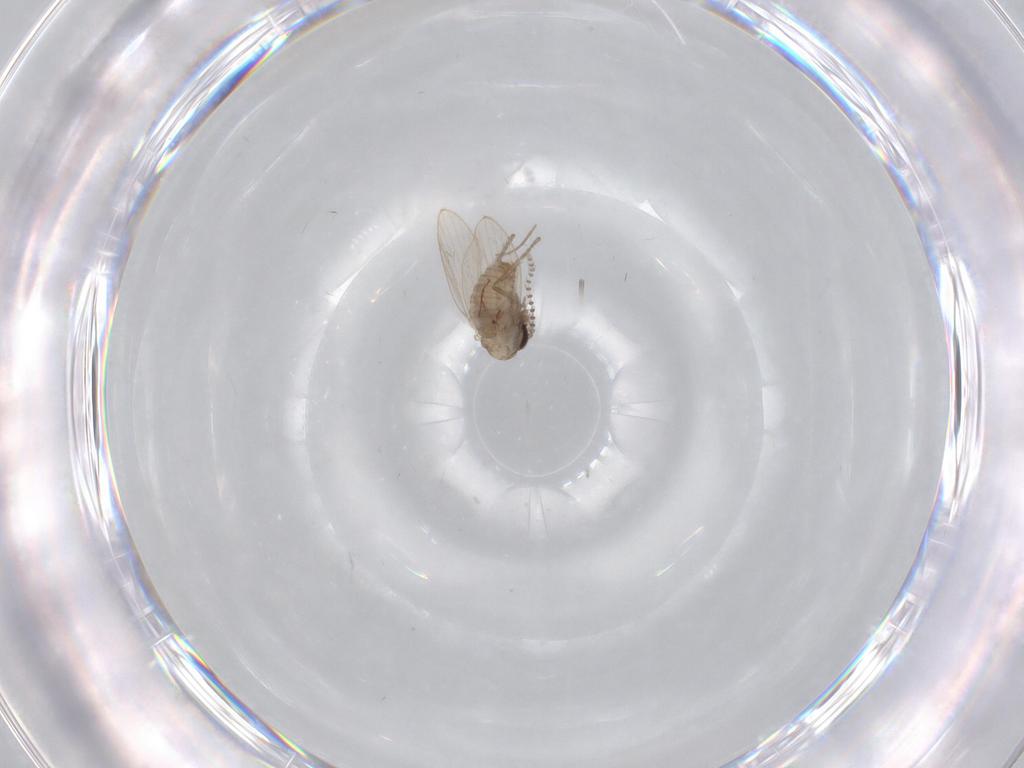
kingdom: Animalia
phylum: Arthropoda
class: Insecta
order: Diptera
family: Psychodidae
